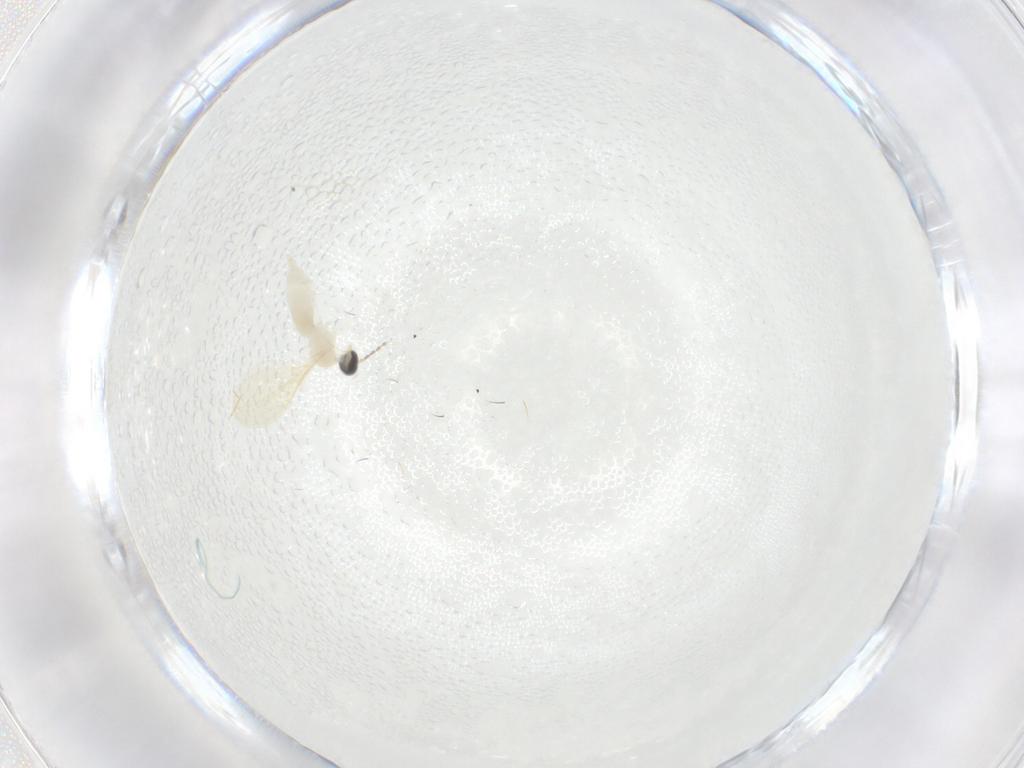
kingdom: Animalia
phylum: Arthropoda
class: Insecta
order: Diptera
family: Cecidomyiidae
